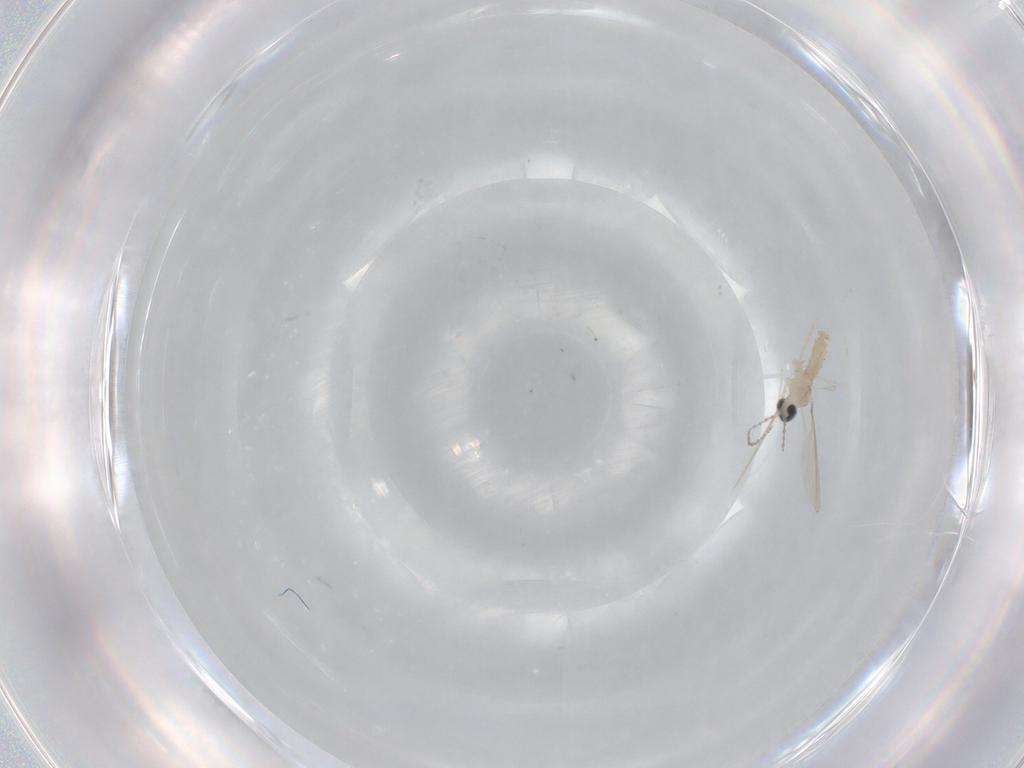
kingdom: Animalia
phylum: Arthropoda
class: Insecta
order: Diptera
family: Cecidomyiidae
